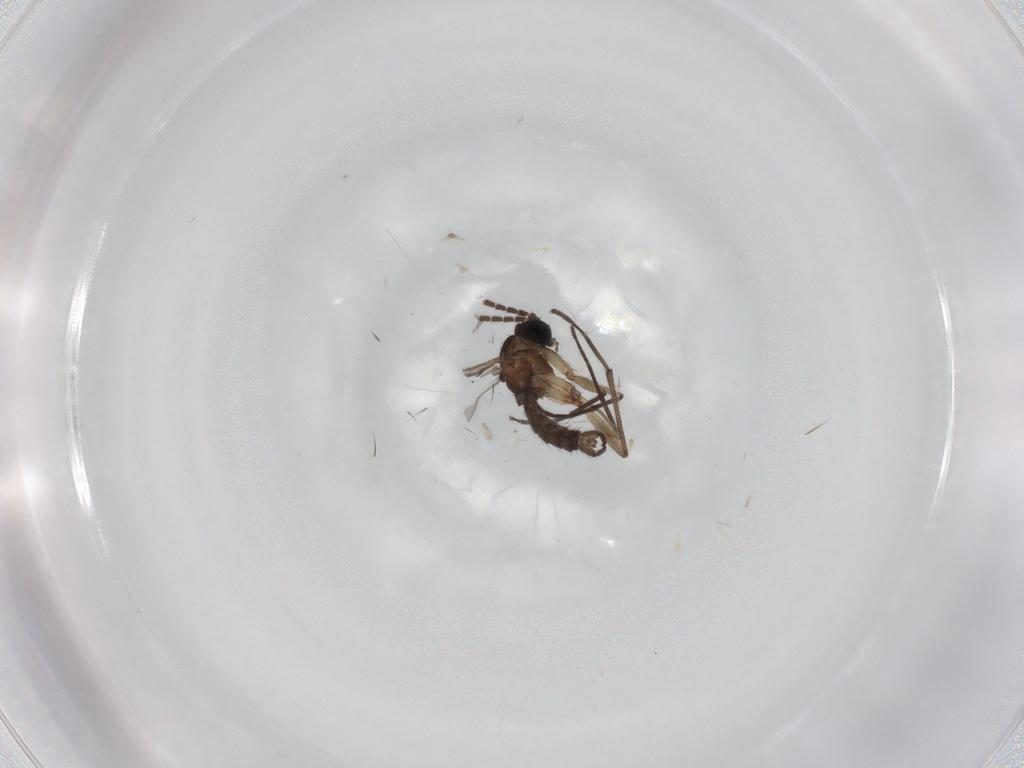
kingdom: Animalia
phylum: Arthropoda
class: Insecta
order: Diptera
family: Sciaridae
